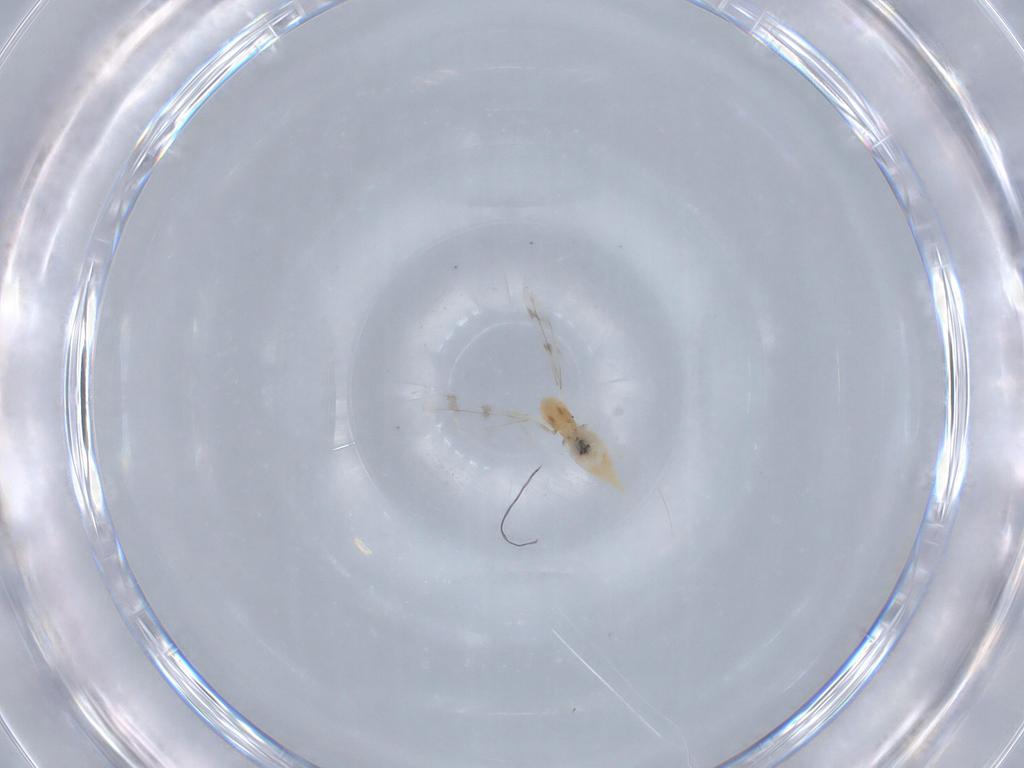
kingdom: Animalia
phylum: Arthropoda
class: Insecta
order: Diptera
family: Cecidomyiidae
